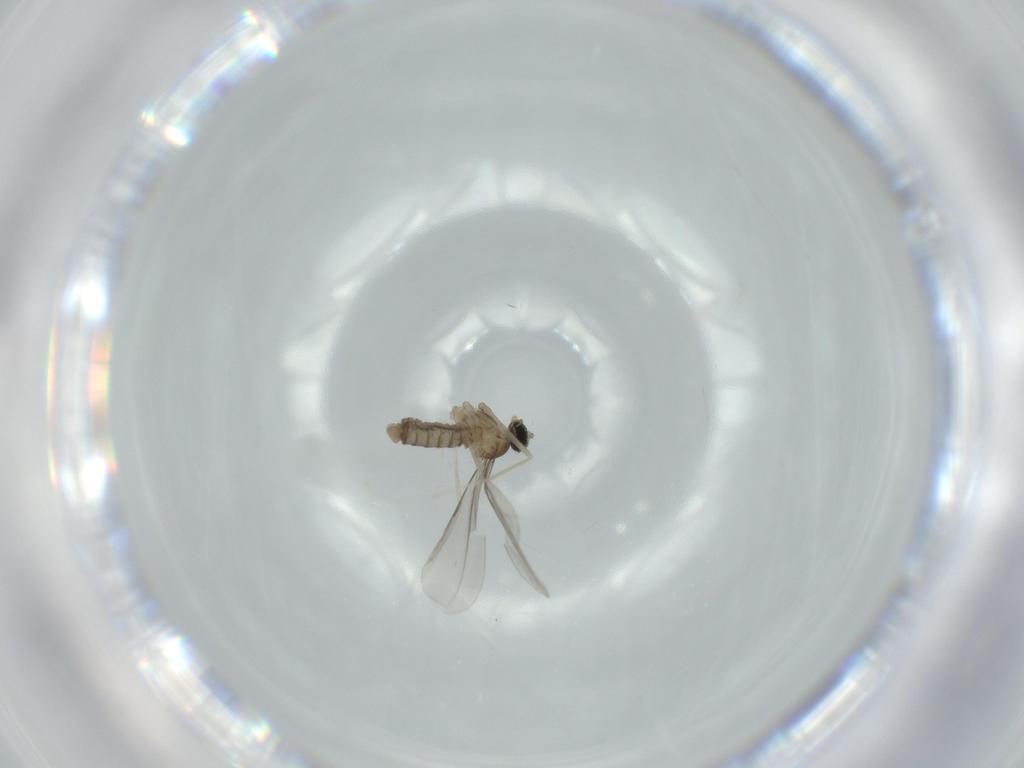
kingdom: Animalia
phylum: Arthropoda
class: Insecta
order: Diptera
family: Cecidomyiidae
